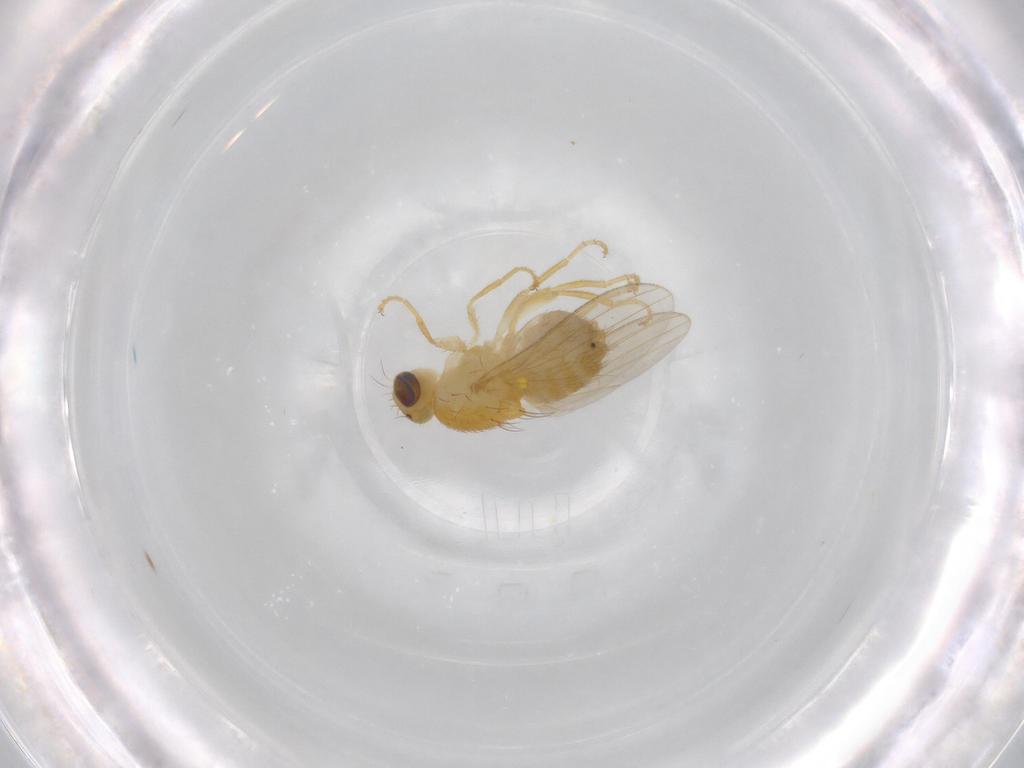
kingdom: Animalia
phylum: Arthropoda
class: Insecta
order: Diptera
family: Chyromyidae
